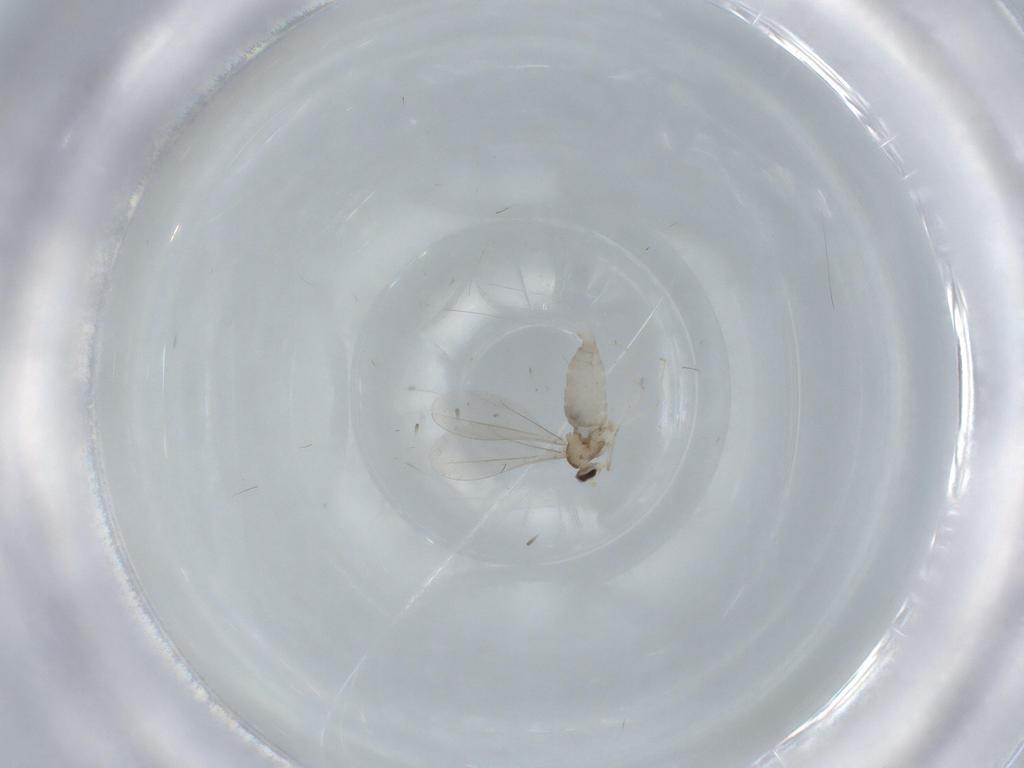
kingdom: Animalia
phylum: Arthropoda
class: Insecta
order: Diptera
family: Cecidomyiidae
